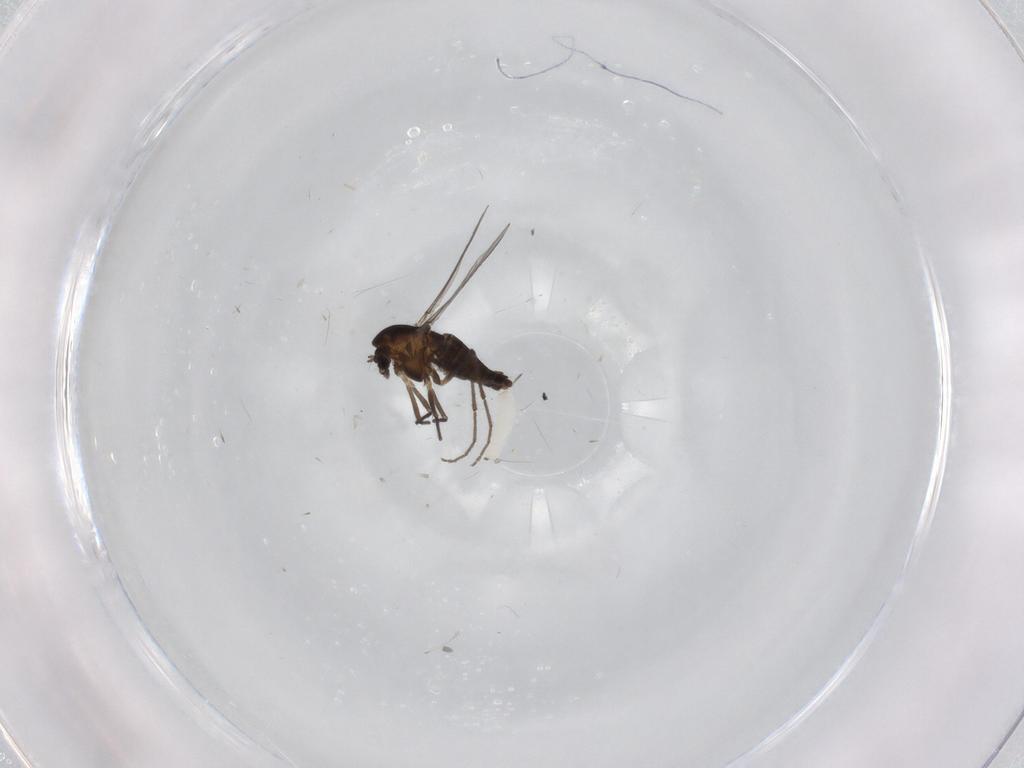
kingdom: Animalia
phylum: Arthropoda
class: Insecta
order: Diptera
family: Chironomidae
